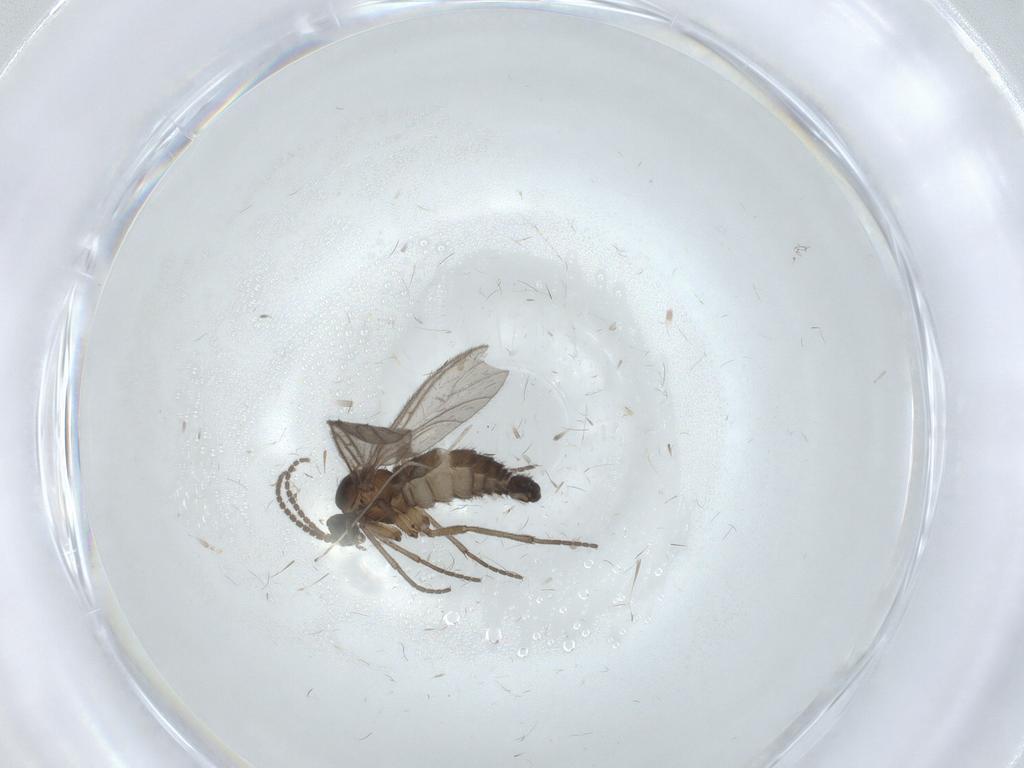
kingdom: Animalia
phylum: Arthropoda
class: Insecta
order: Diptera
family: Sciaridae
